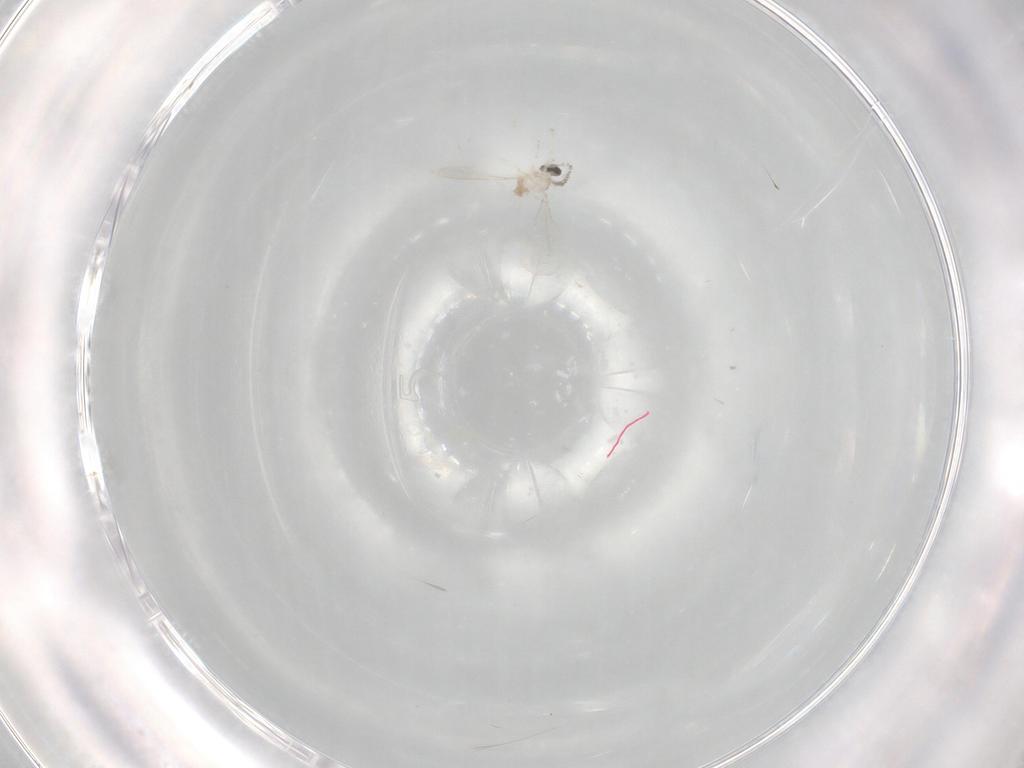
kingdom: Animalia
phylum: Arthropoda
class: Insecta
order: Diptera
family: Cecidomyiidae
